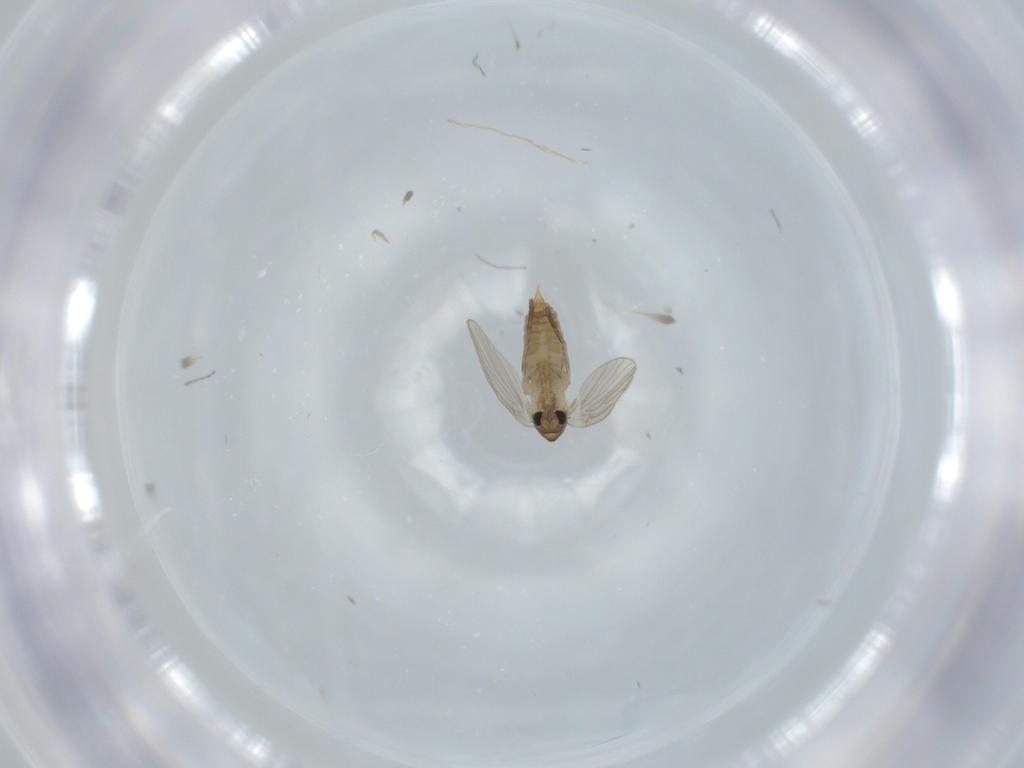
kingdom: Animalia
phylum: Arthropoda
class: Insecta
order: Diptera
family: Psychodidae
